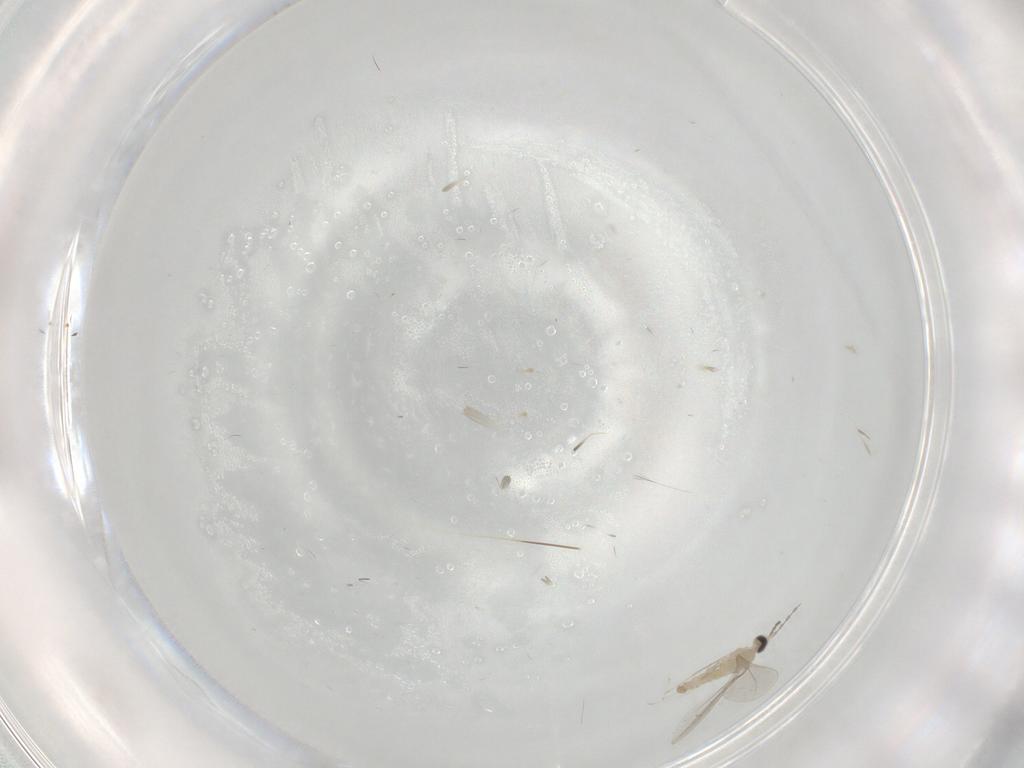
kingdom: Animalia
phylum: Arthropoda
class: Insecta
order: Diptera
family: Cecidomyiidae
